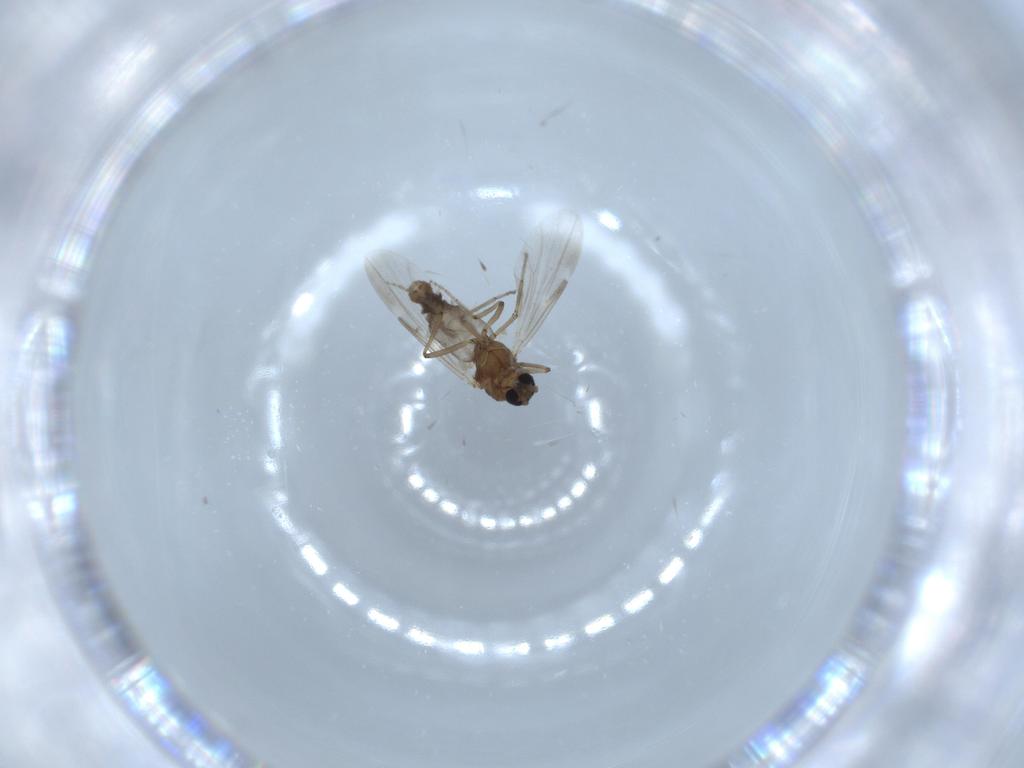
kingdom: Animalia
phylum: Arthropoda
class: Insecta
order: Diptera
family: Ceratopogonidae
